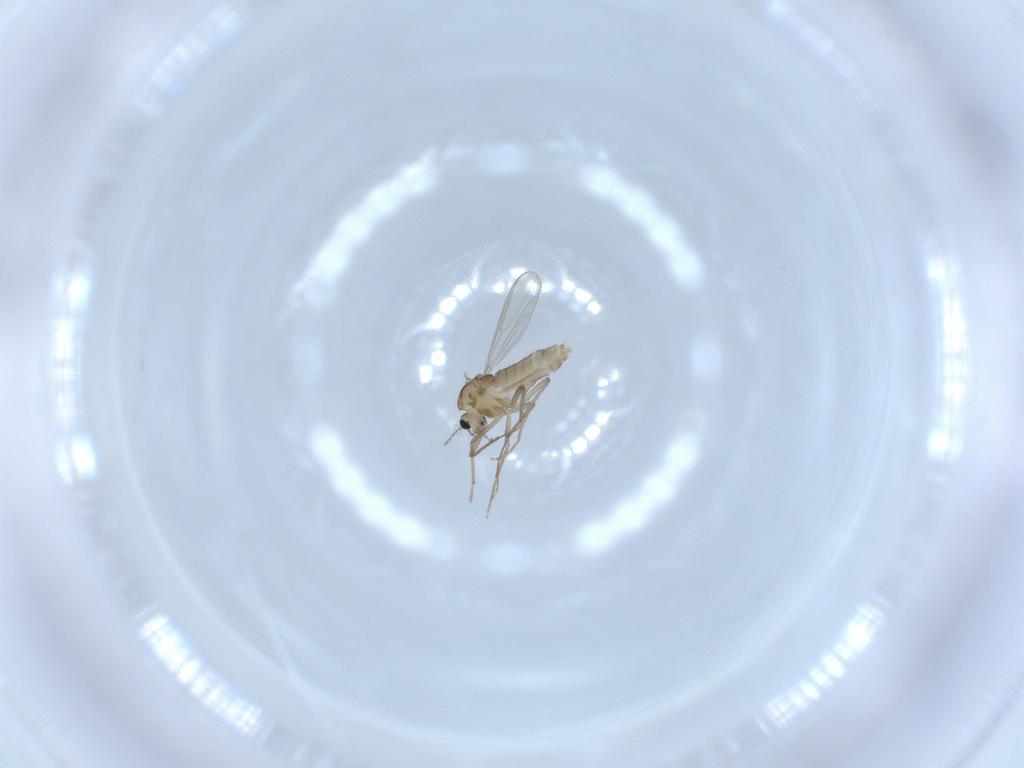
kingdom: Animalia
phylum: Arthropoda
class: Insecta
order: Diptera
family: Chironomidae
